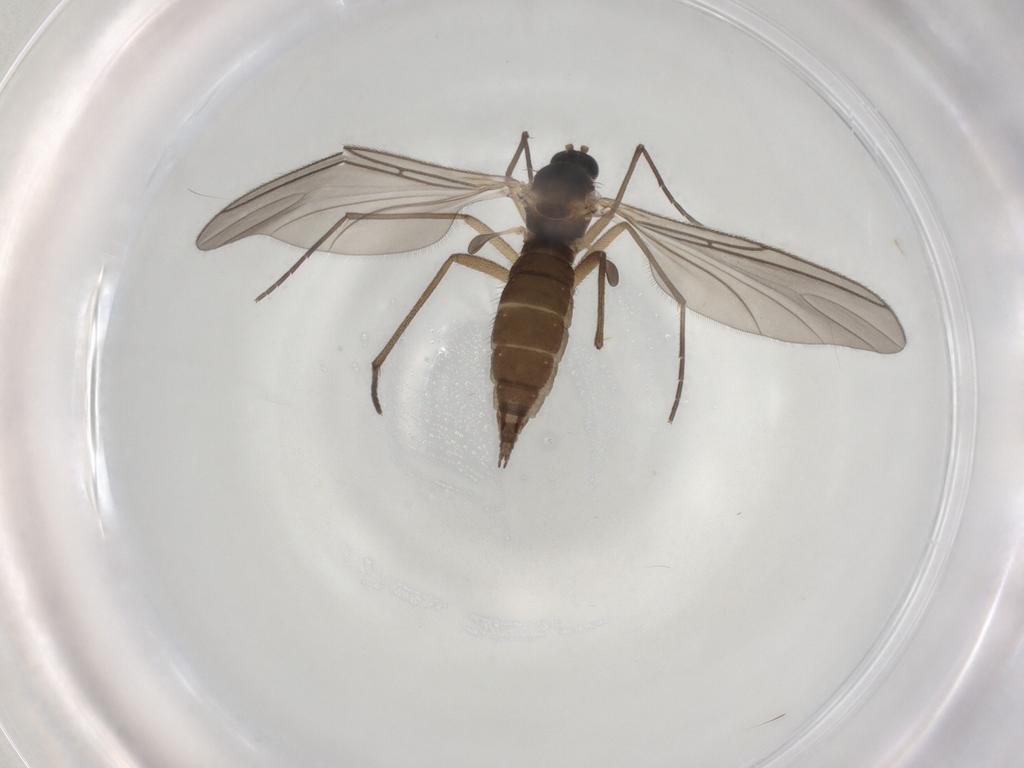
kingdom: Animalia
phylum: Arthropoda
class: Insecta
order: Diptera
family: Sciaridae
